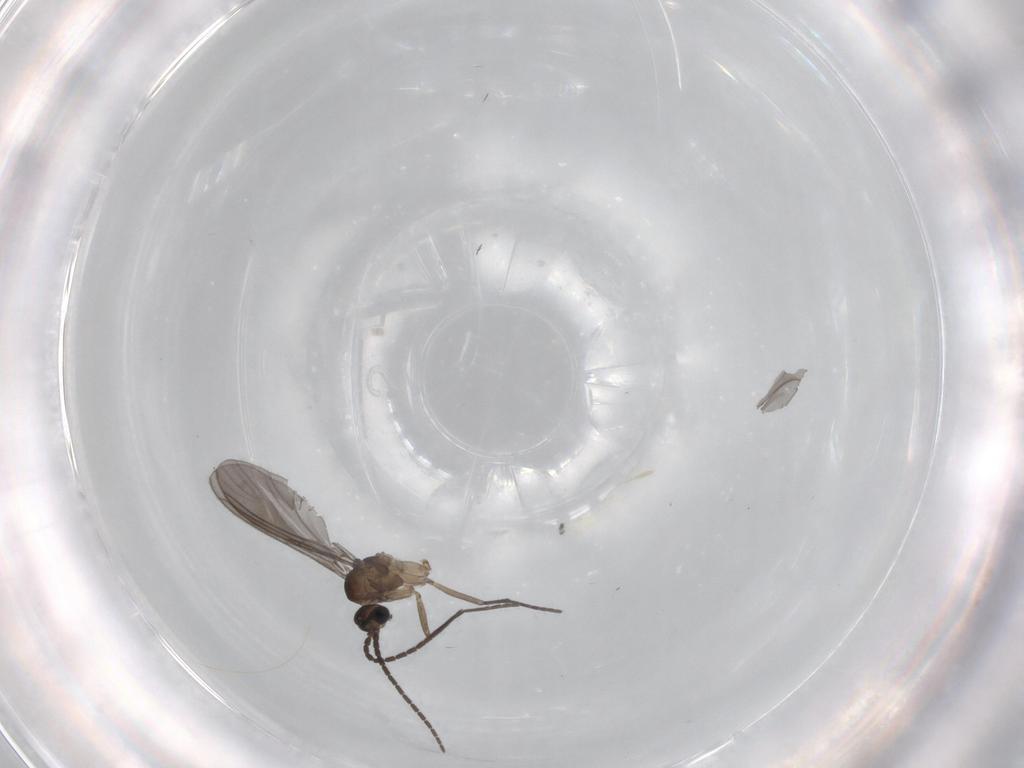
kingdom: Animalia
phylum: Arthropoda
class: Insecta
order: Diptera
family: Sciaridae
